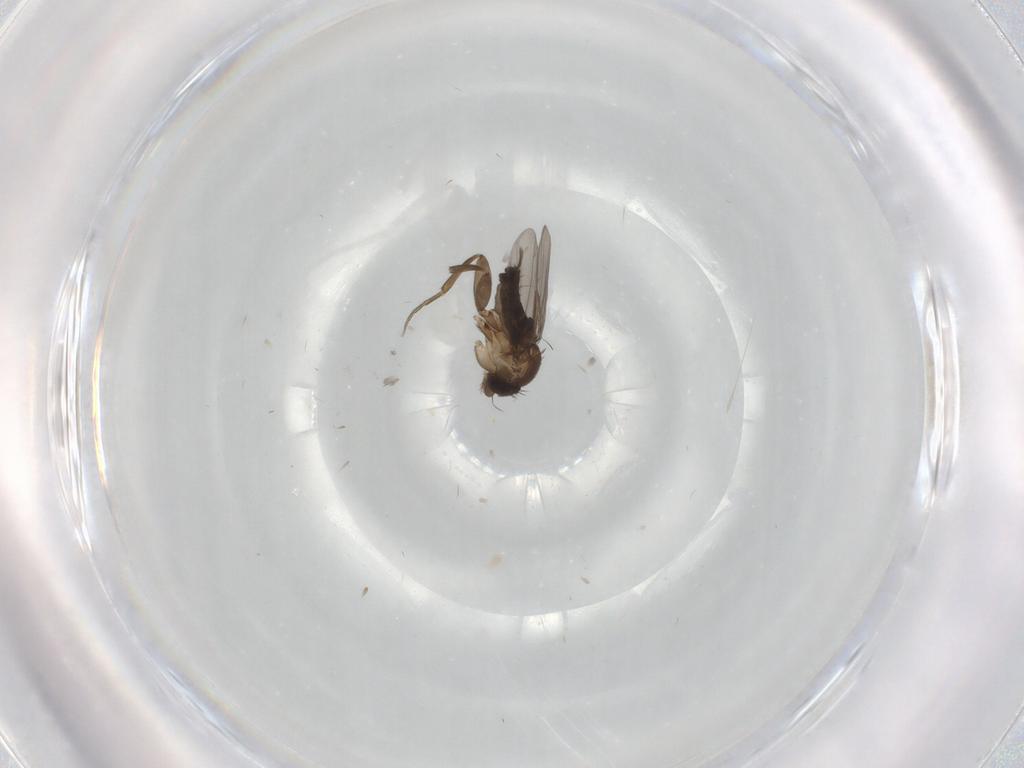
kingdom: Animalia
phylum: Arthropoda
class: Insecta
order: Diptera
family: Phoridae
